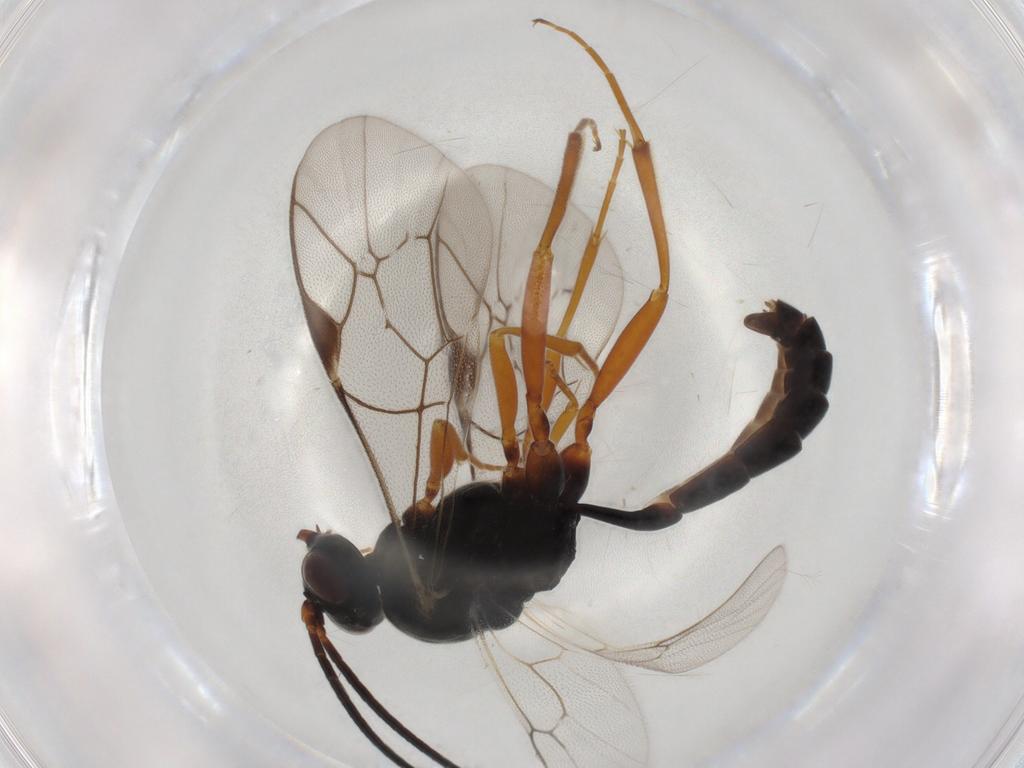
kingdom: Animalia
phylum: Arthropoda
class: Insecta
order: Hymenoptera
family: Ichneumonidae
